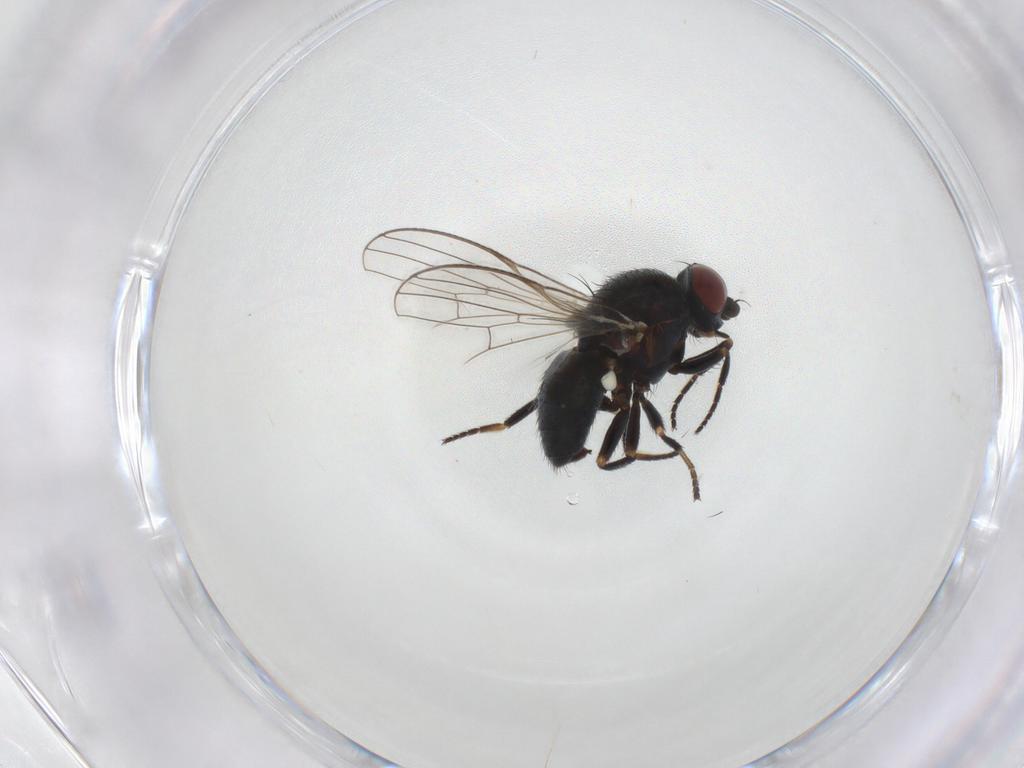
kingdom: Animalia
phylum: Arthropoda
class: Insecta
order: Diptera
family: Chamaemyiidae
